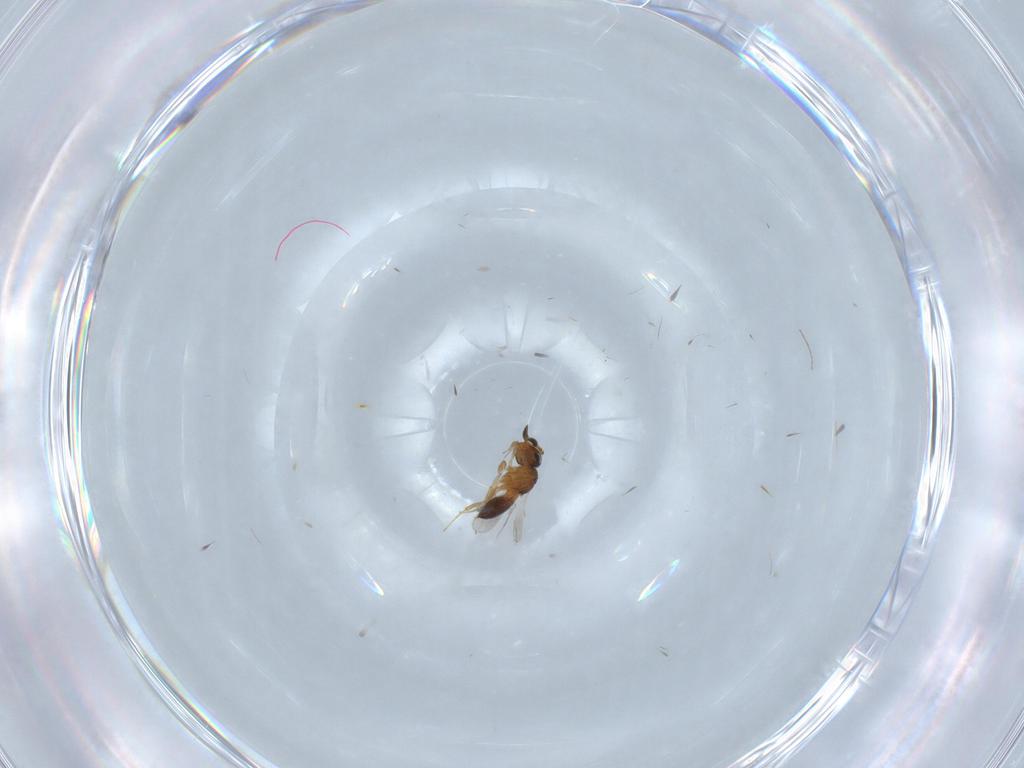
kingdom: Animalia
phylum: Arthropoda
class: Insecta
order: Hymenoptera
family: Scelionidae
